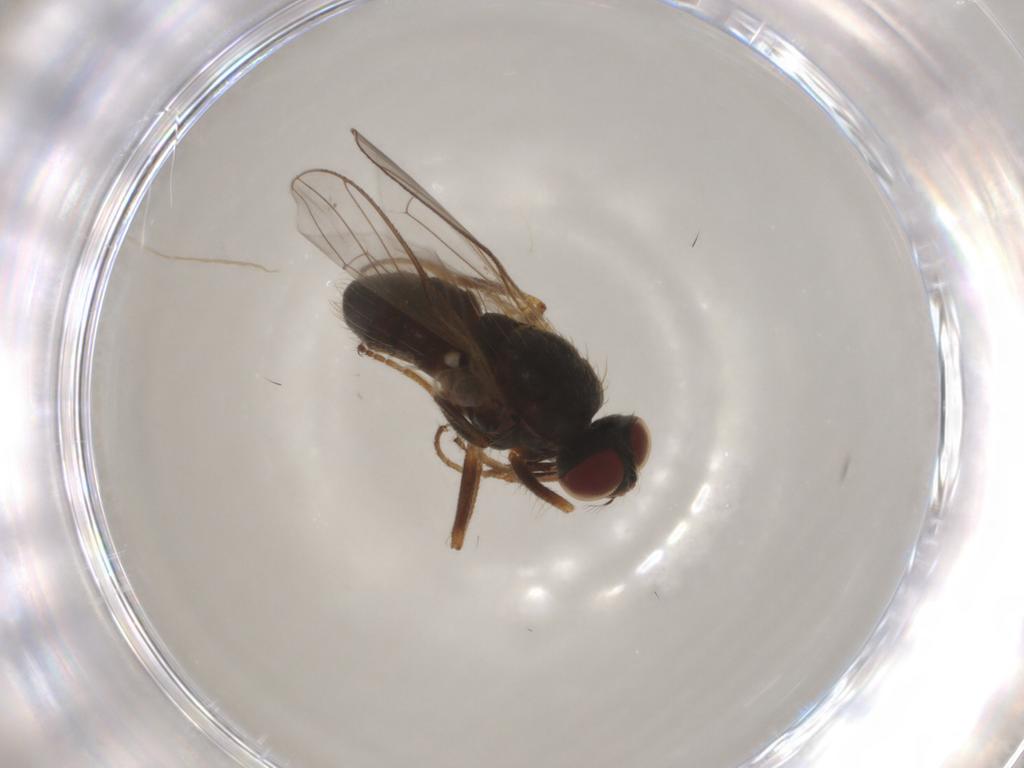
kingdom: Animalia
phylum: Arthropoda
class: Insecta
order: Diptera
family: Muscidae
